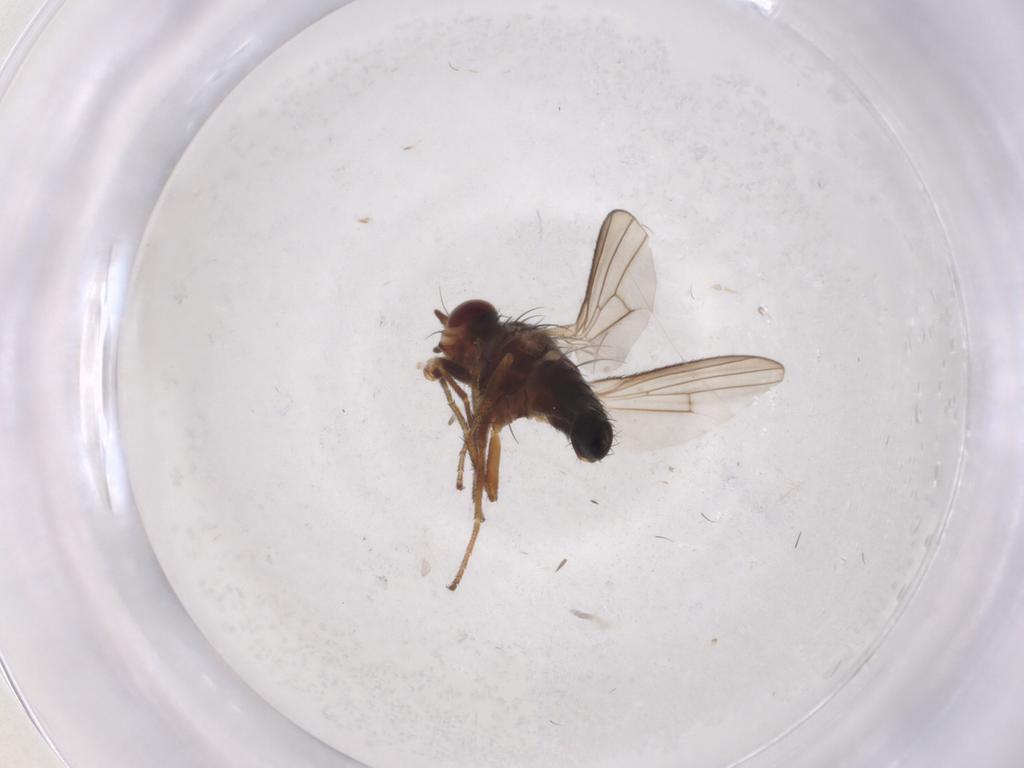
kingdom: Animalia
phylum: Arthropoda
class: Insecta
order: Diptera
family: Heleomyzidae
